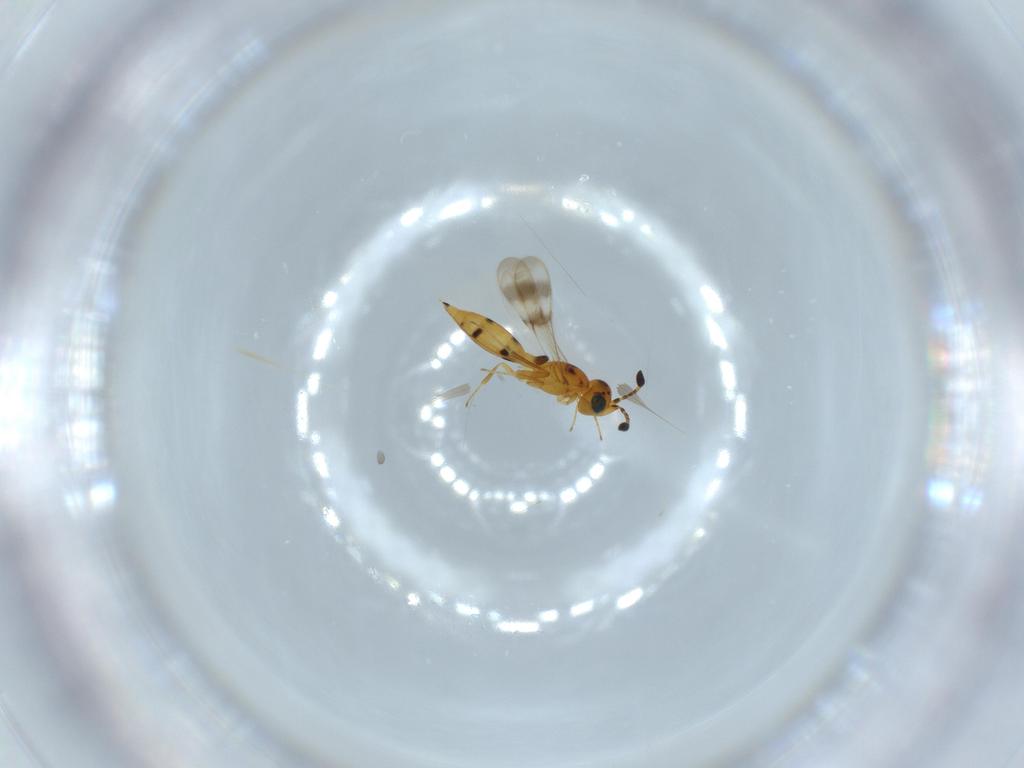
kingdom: Animalia
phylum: Arthropoda
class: Insecta
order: Hymenoptera
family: Scelionidae
